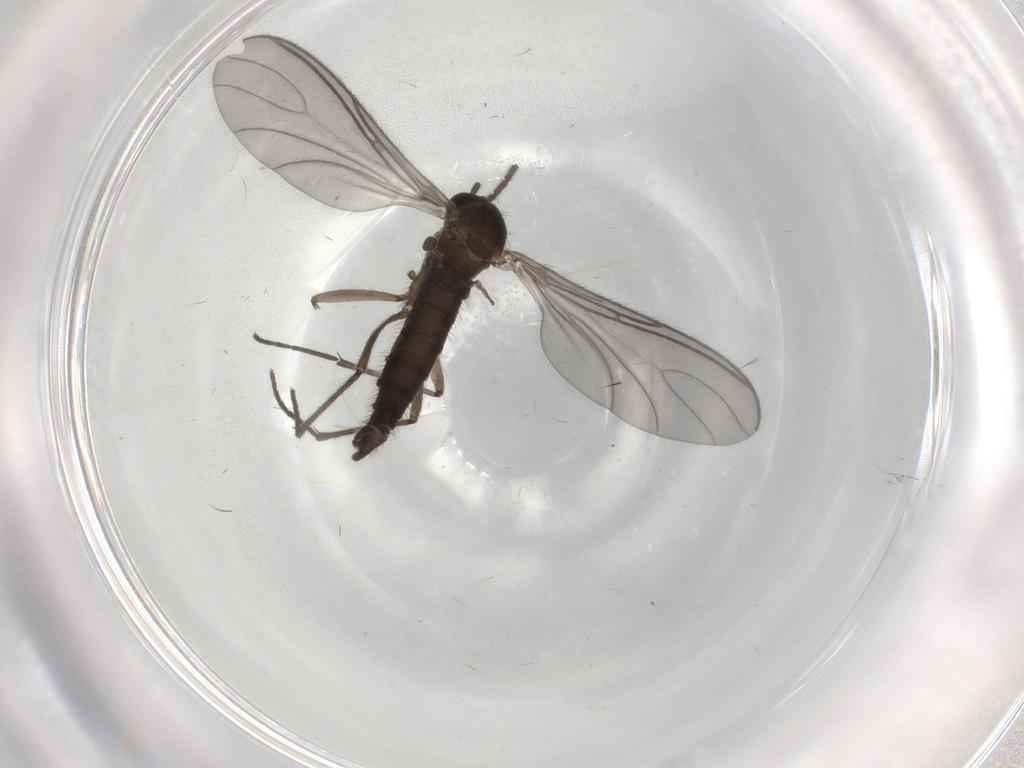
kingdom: Animalia
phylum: Arthropoda
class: Insecta
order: Diptera
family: Sciaridae
